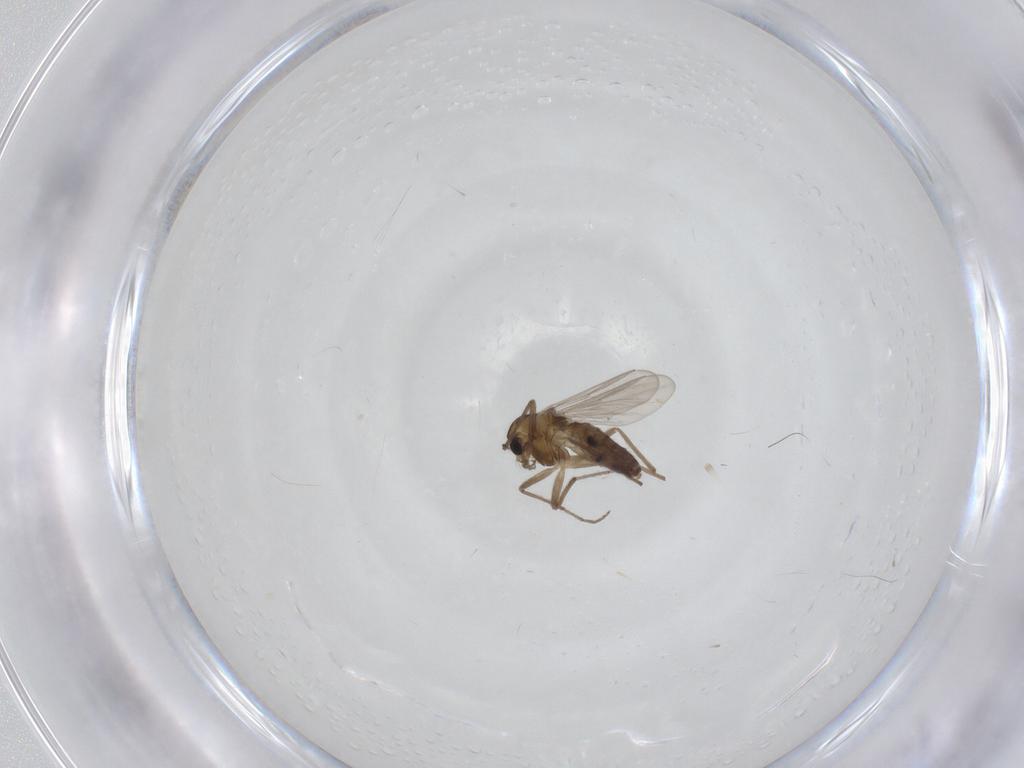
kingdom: Animalia
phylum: Arthropoda
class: Insecta
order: Diptera
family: Chironomidae
